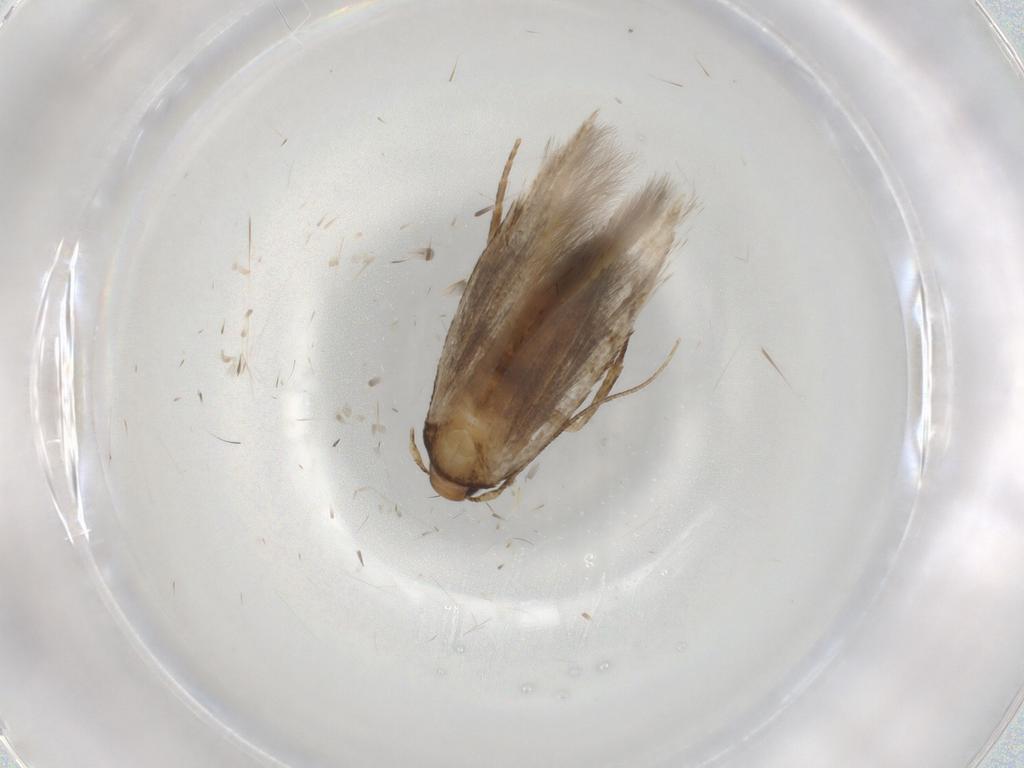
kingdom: Animalia
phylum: Arthropoda
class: Insecta
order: Lepidoptera
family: Cosmopterigidae
